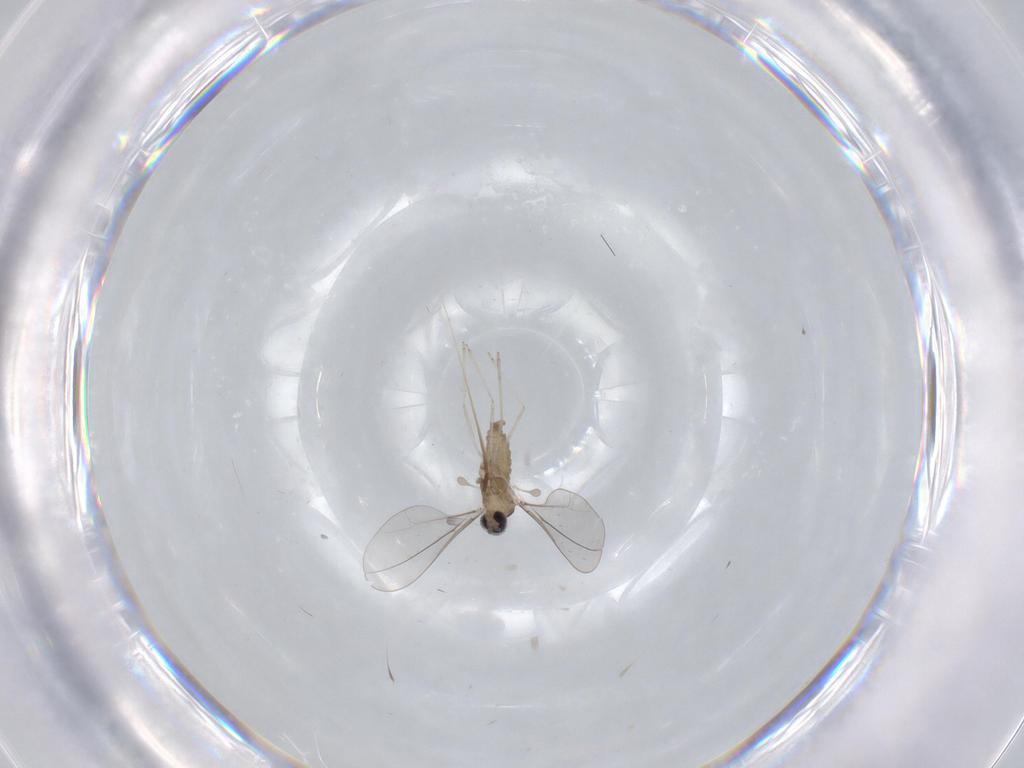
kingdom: Animalia
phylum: Arthropoda
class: Insecta
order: Diptera
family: Cecidomyiidae
